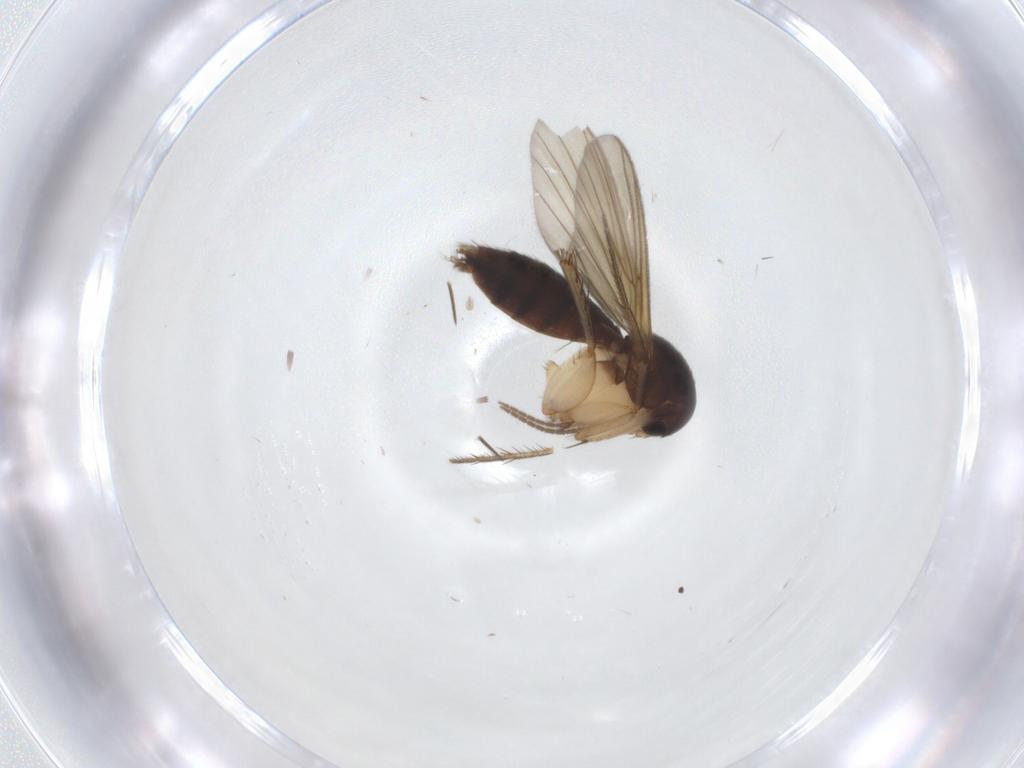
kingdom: Animalia
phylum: Arthropoda
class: Insecta
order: Diptera
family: Mycetophilidae
